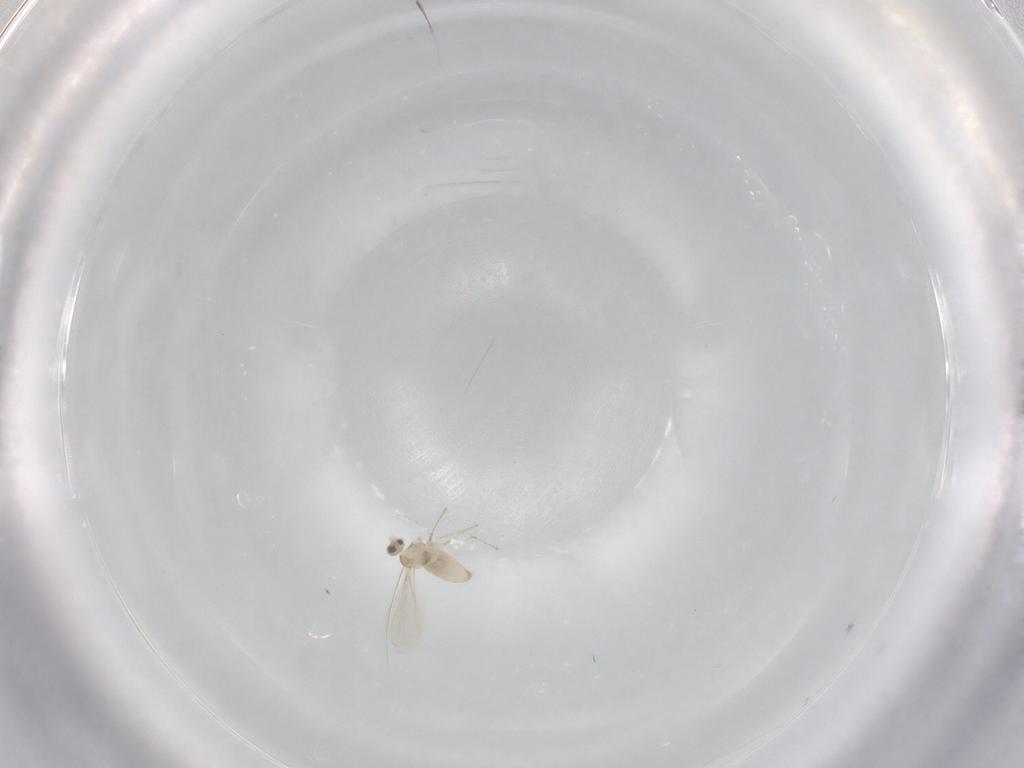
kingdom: Animalia
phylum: Arthropoda
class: Insecta
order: Diptera
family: Cecidomyiidae
